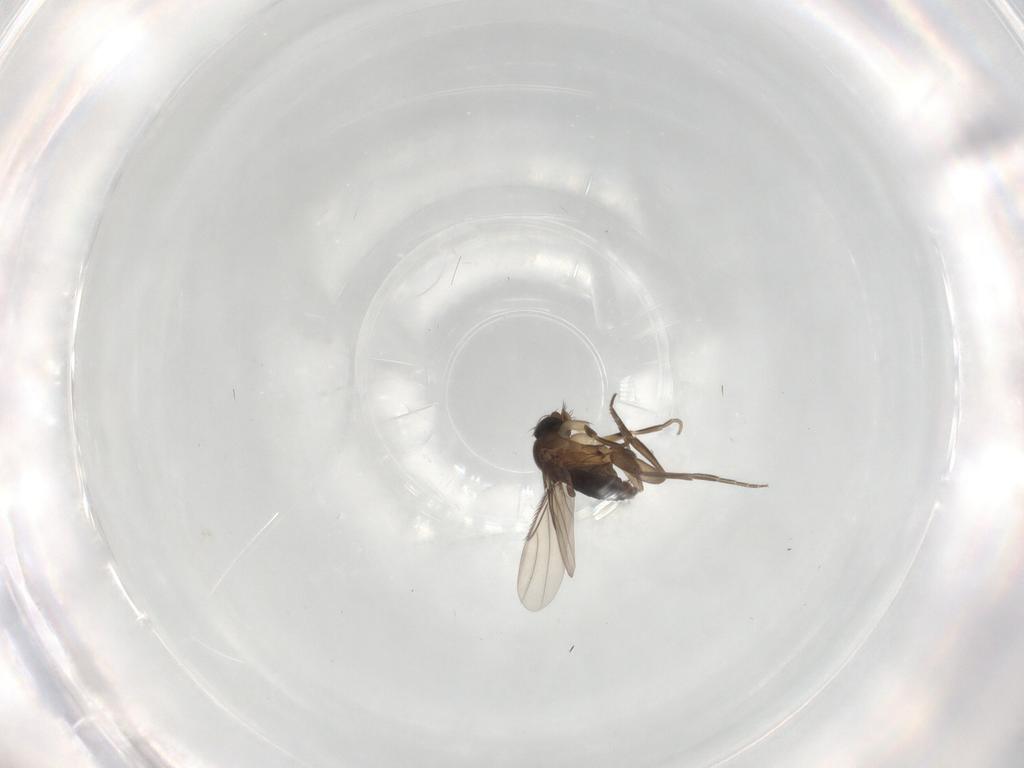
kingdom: Animalia
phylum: Arthropoda
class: Insecta
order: Diptera
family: Phoridae
